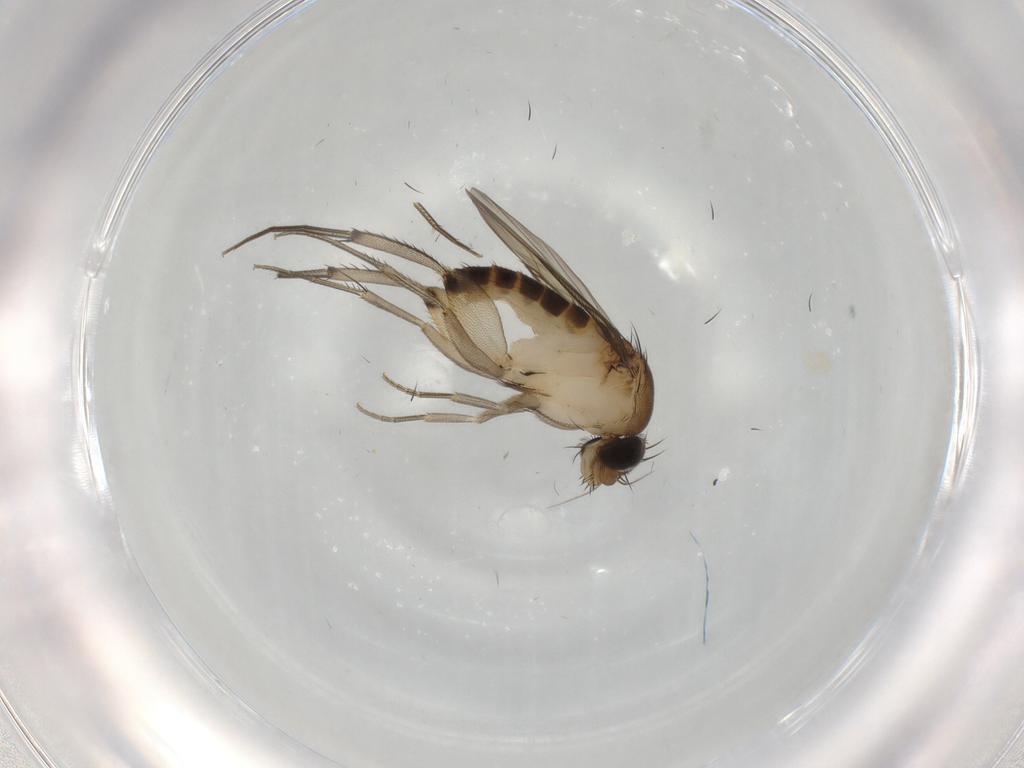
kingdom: Animalia
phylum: Arthropoda
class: Insecta
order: Diptera
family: Phoridae
